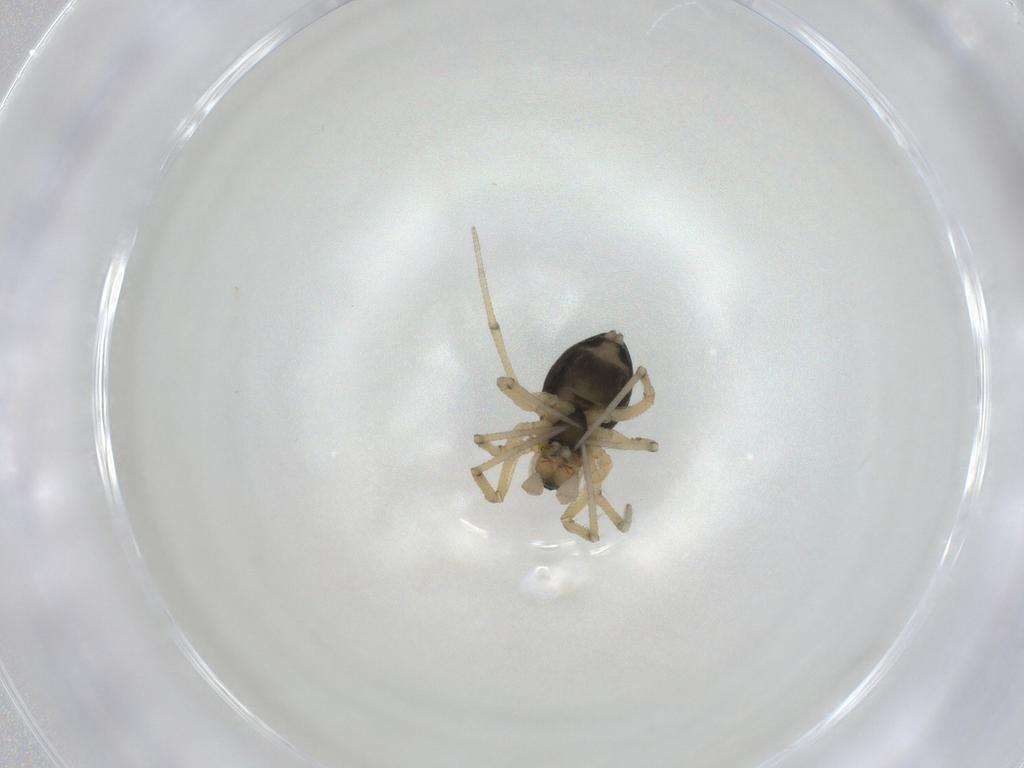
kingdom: Animalia
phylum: Arthropoda
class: Arachnida
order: Araneae
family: Linyphiidae
